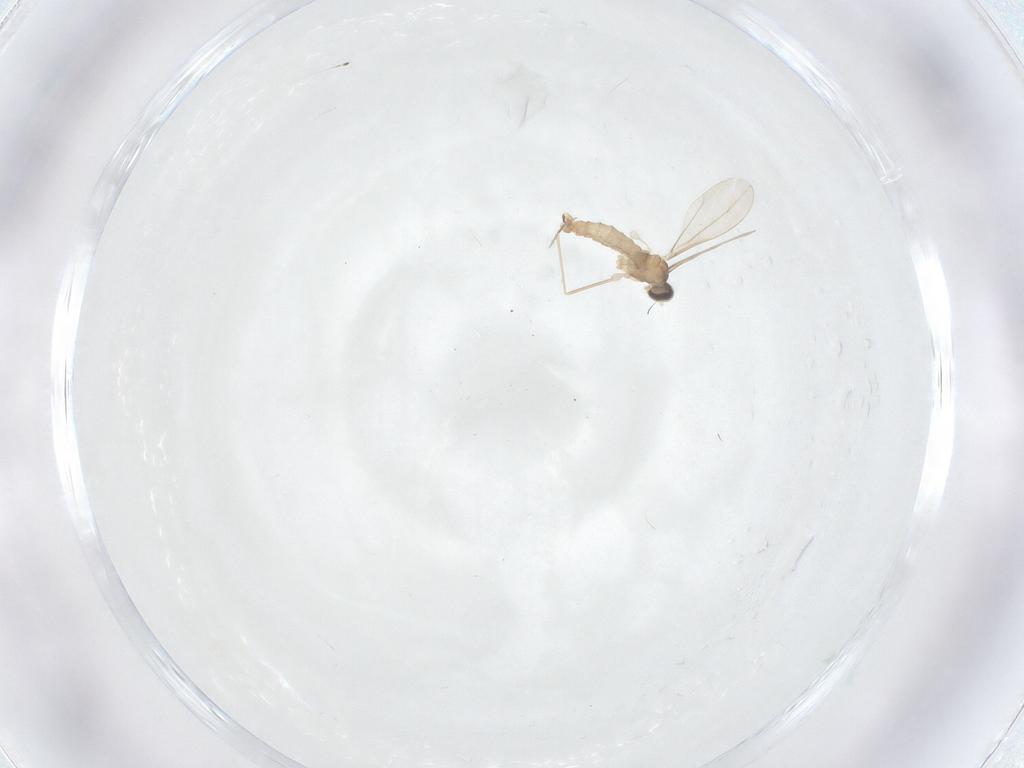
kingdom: Animalia
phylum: Arthropoda
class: Insecta
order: Diptera
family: Cecidomyiidae
